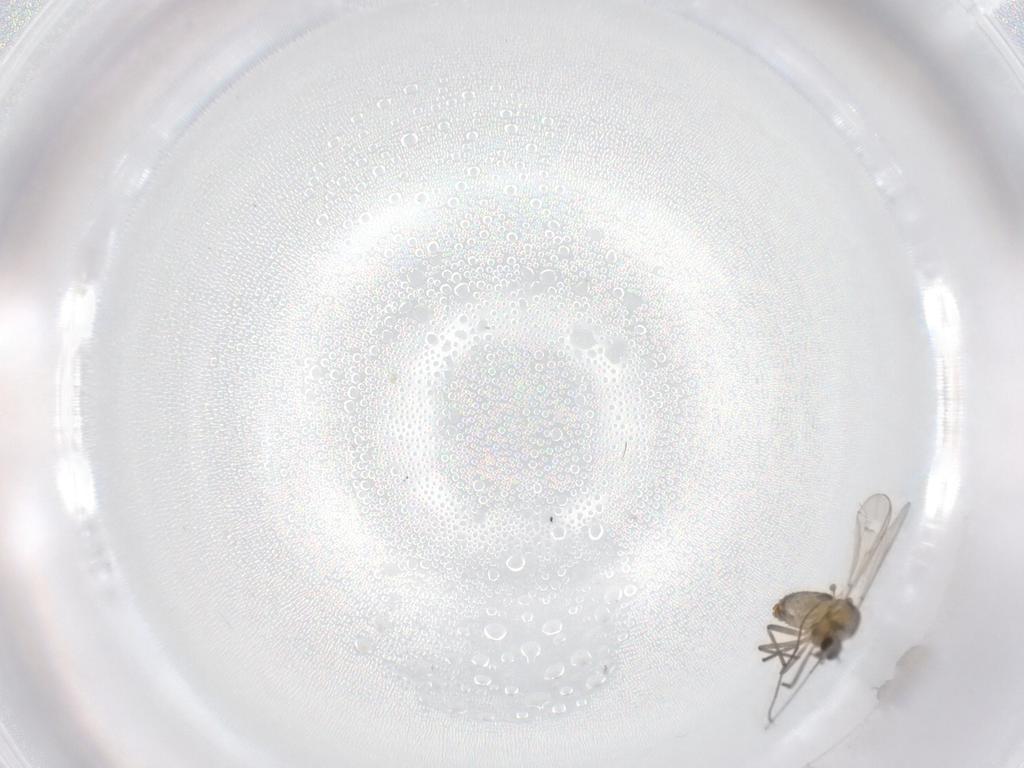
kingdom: Animalia
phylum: Arthropoda
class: Insecta
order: Diptera
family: Chironomidae
